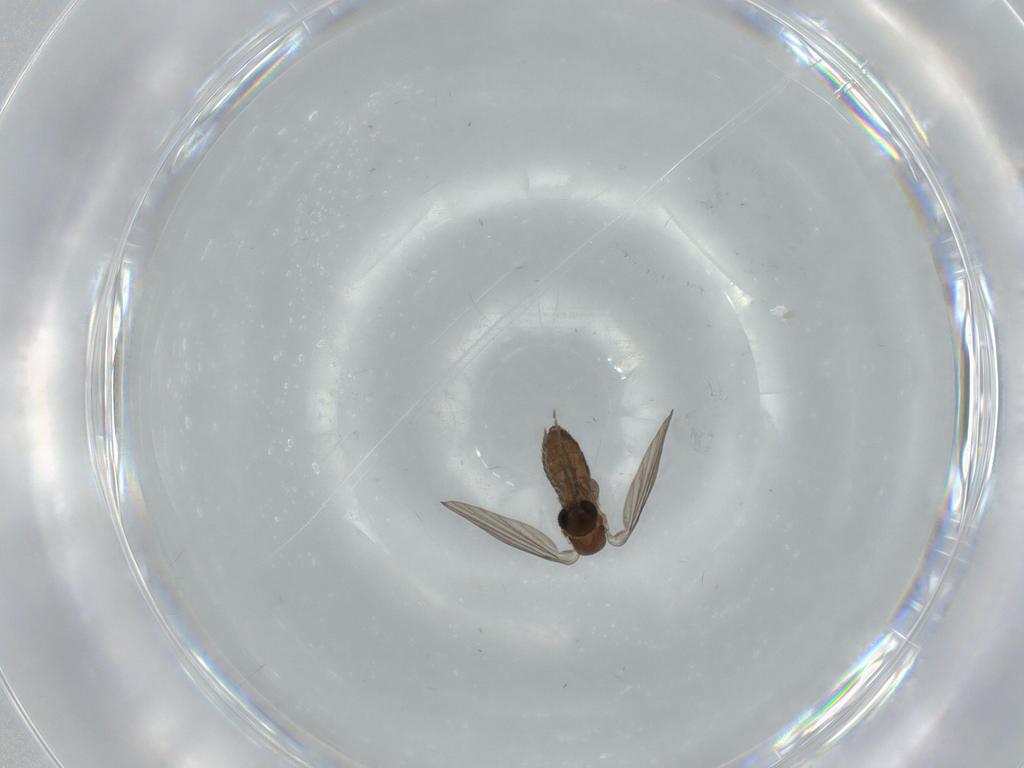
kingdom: Animalia
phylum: Arthropoda
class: Insecta
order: Diptera
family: Psychodidae
